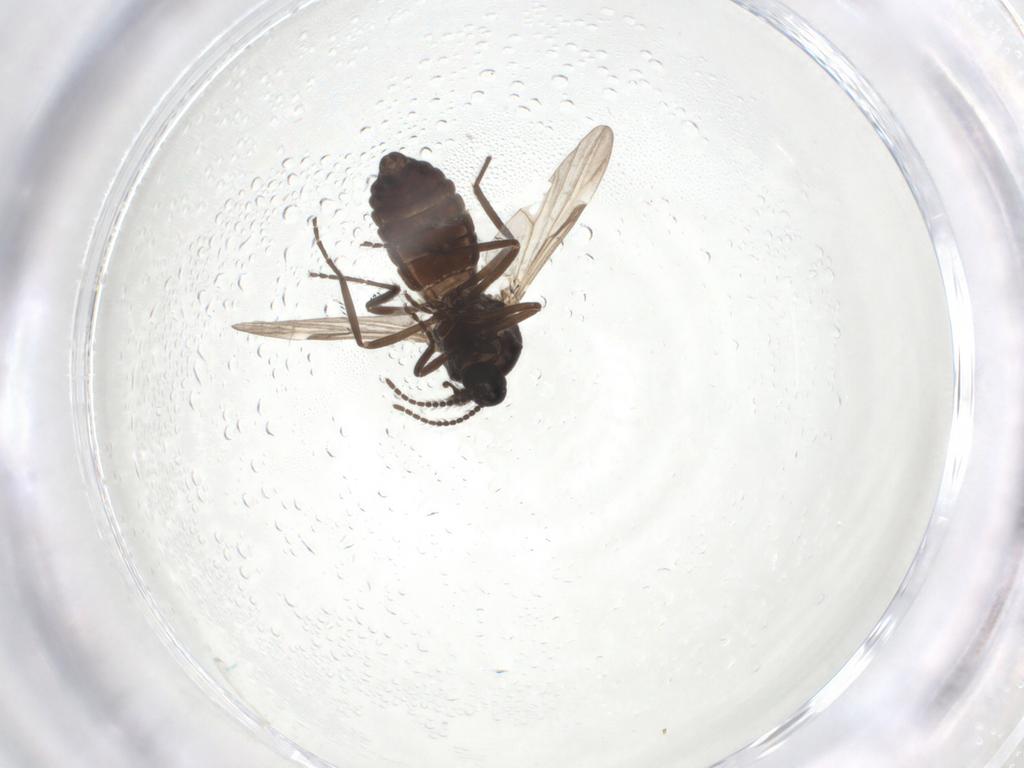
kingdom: Animalia
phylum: Arthropoda
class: Insecta
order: Diptera
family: Ceratopogonidae
